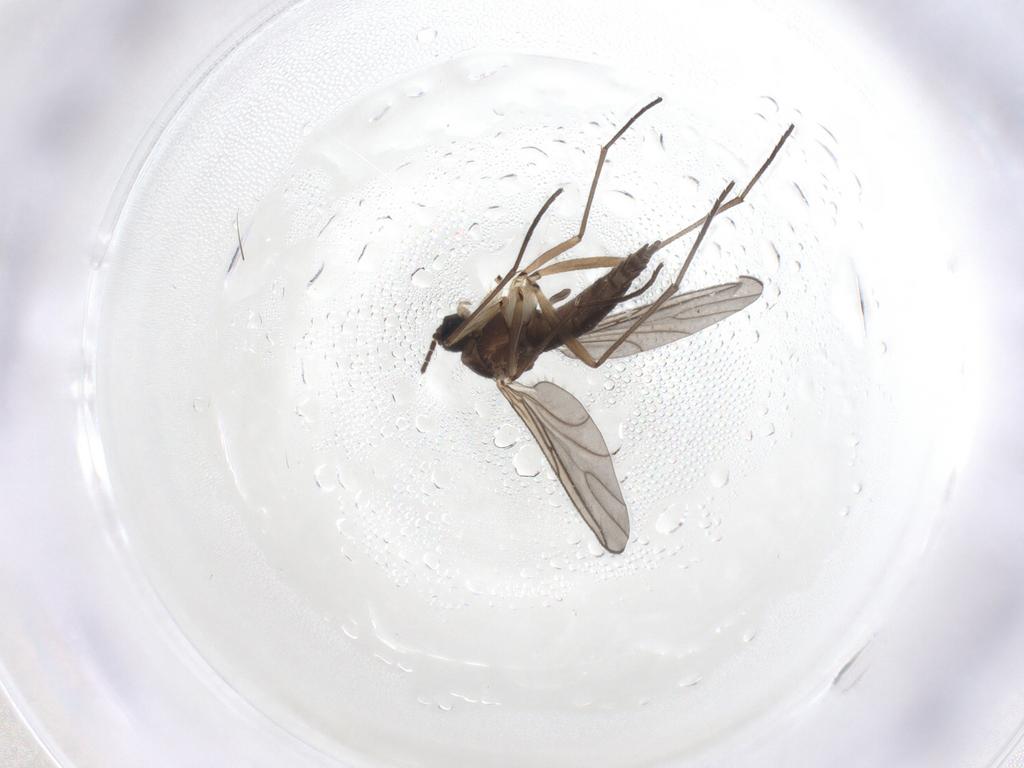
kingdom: Animalia
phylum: Arthropoda
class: Insecta
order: Diptera
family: Sciaridae
